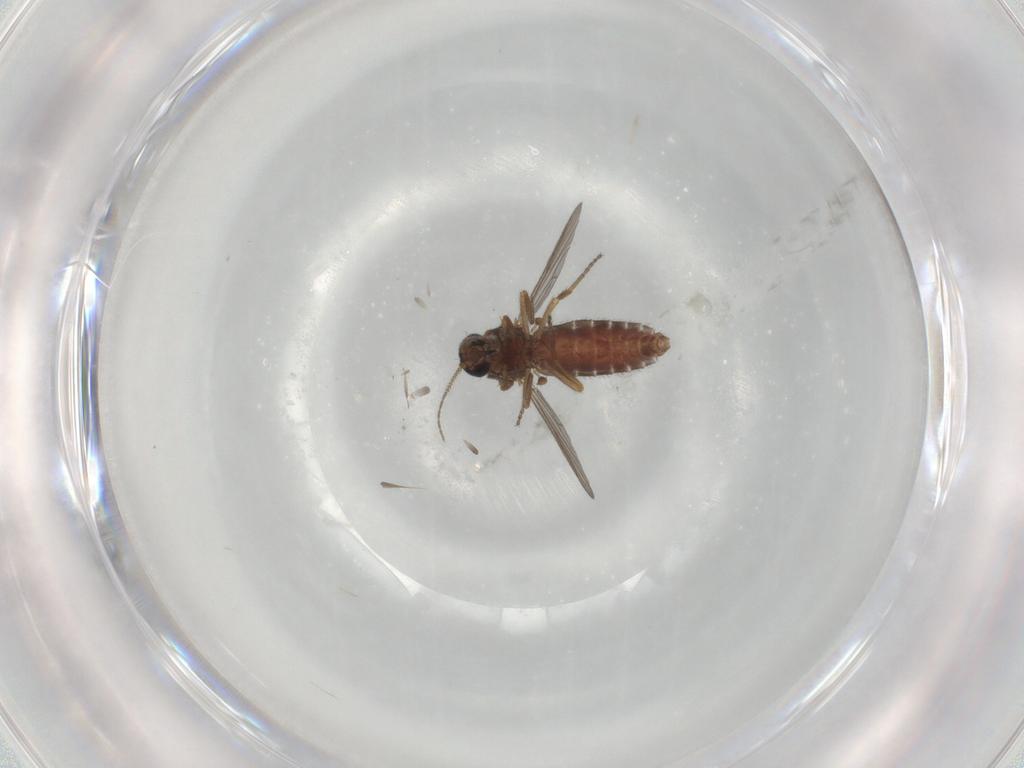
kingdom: Animalia
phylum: Arthropoda
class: Insecta
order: Diptera
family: Ceratopogonidae
